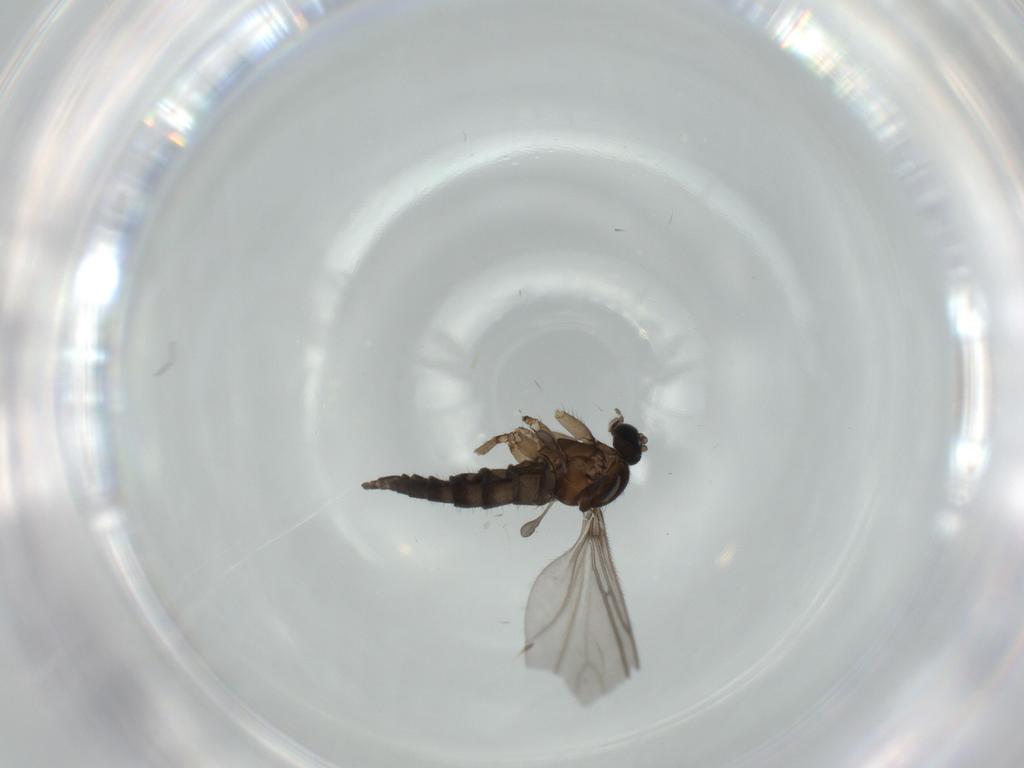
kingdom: Animalia
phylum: Arthropoda
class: Insecta
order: Diptera
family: Sciaridae
